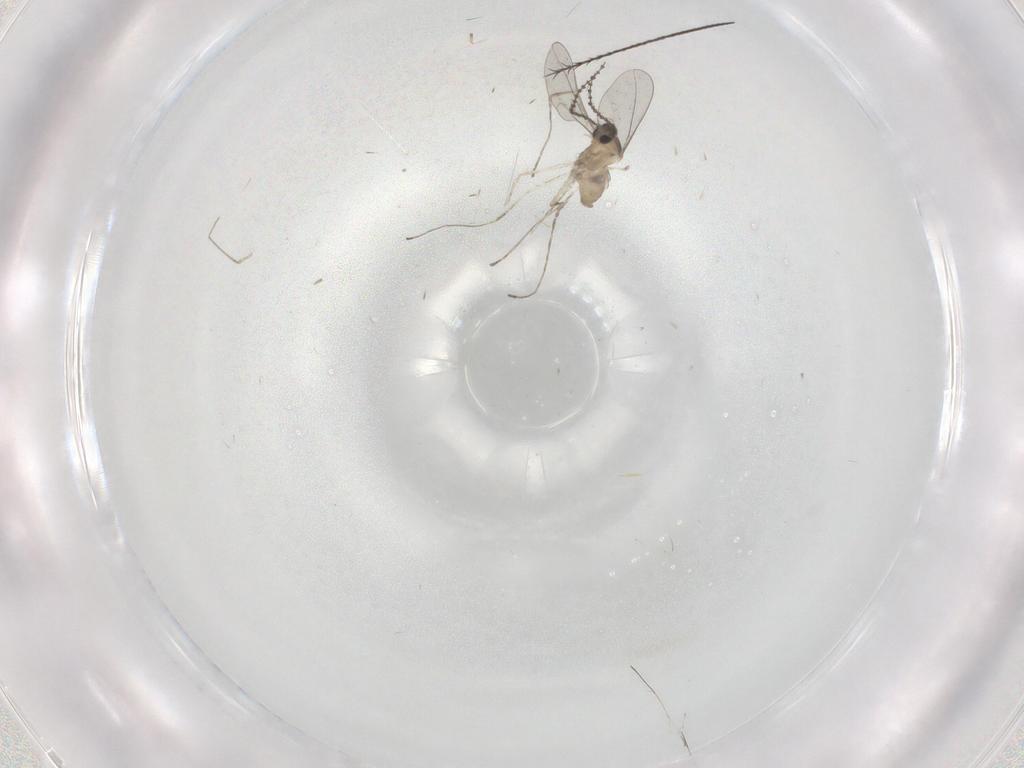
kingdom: Animalia
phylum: Arthropoda
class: Insecta
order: Diptera
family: Cecidomyiidae
